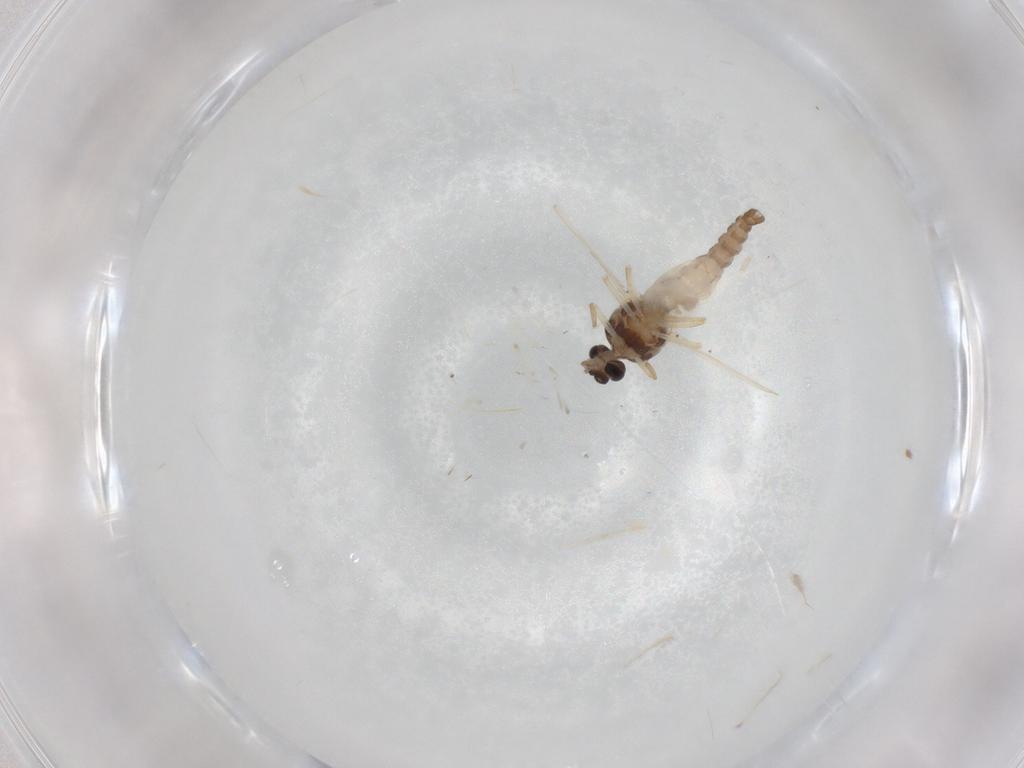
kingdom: Animalia
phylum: Arthropoda
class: Insecta
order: Diptera
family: Ceratopogonidae
